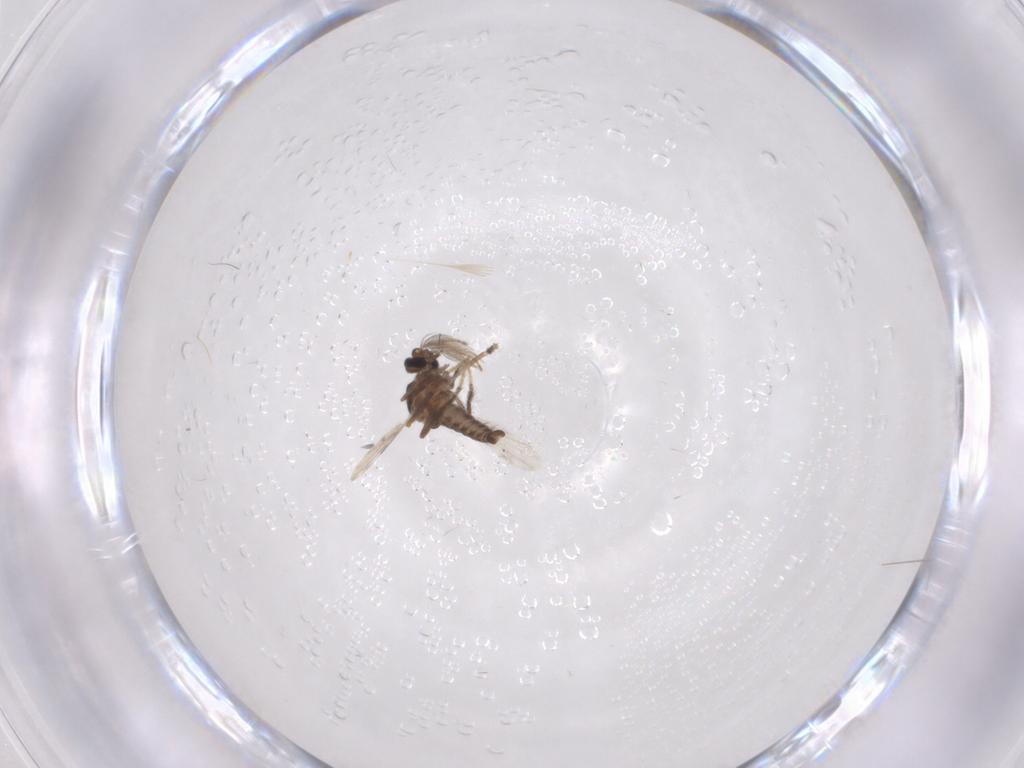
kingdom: Animalia
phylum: Arthropoda
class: Insecta
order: Diptera
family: Ceratopogonidae
